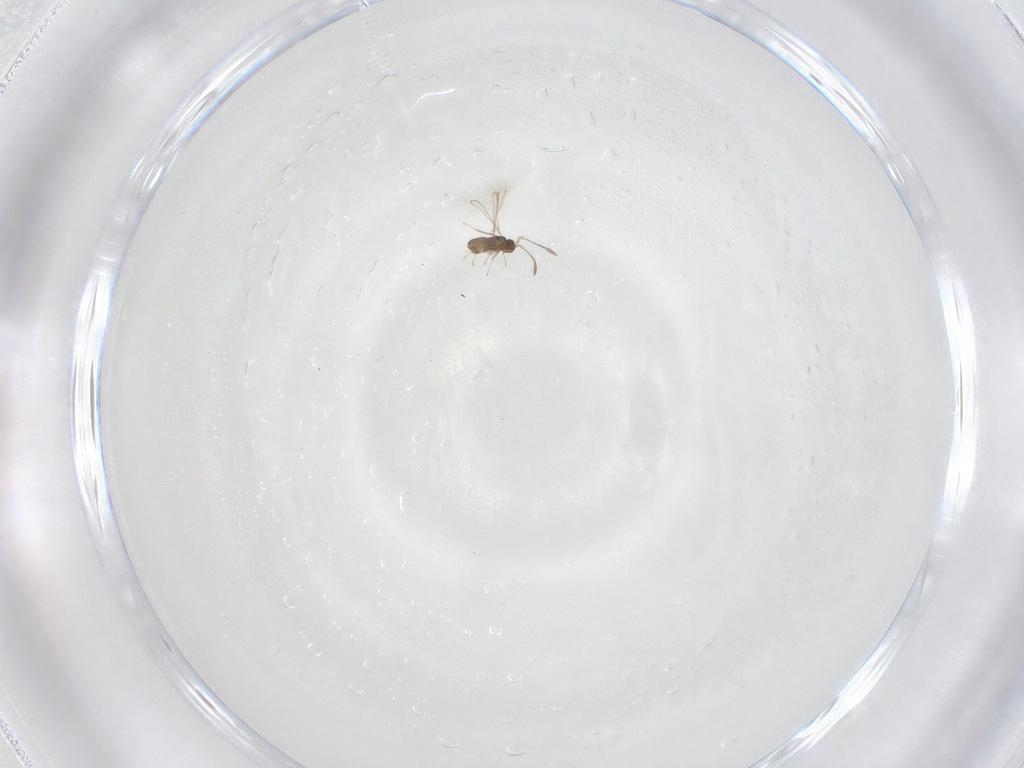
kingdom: Animalia
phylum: Arthropoda
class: Insecta
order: Hymenoptera
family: Mymaridae
